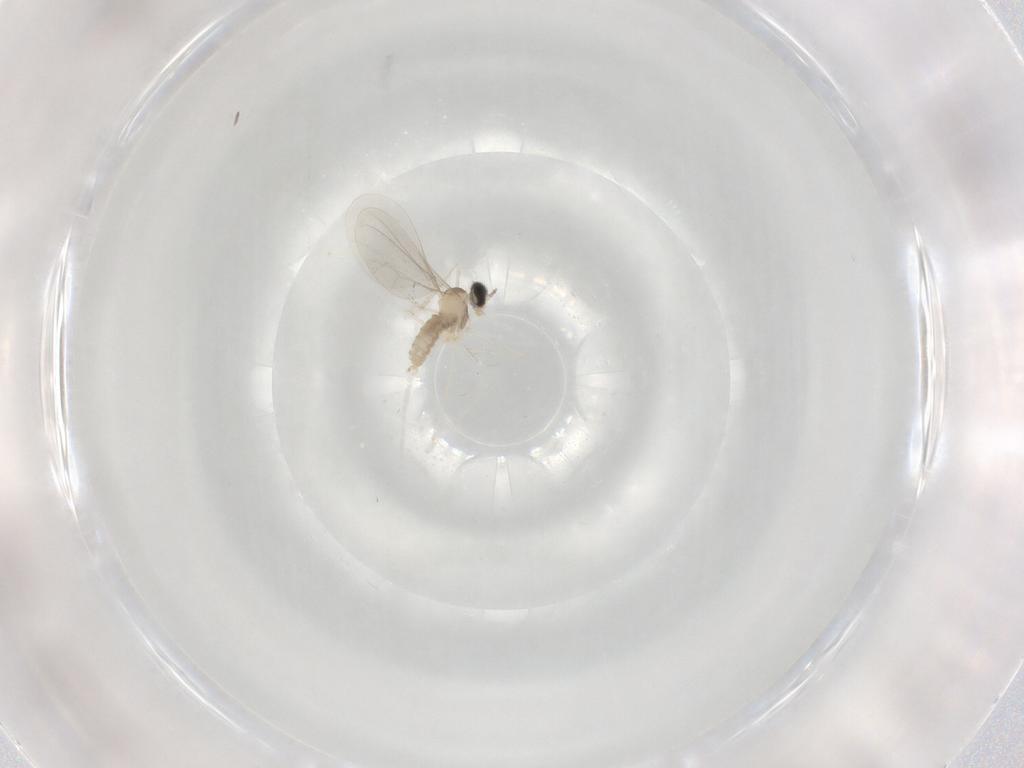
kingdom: Animalia
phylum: Arthropoda
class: Insecta
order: Diptera
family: Cecidomyiidae
